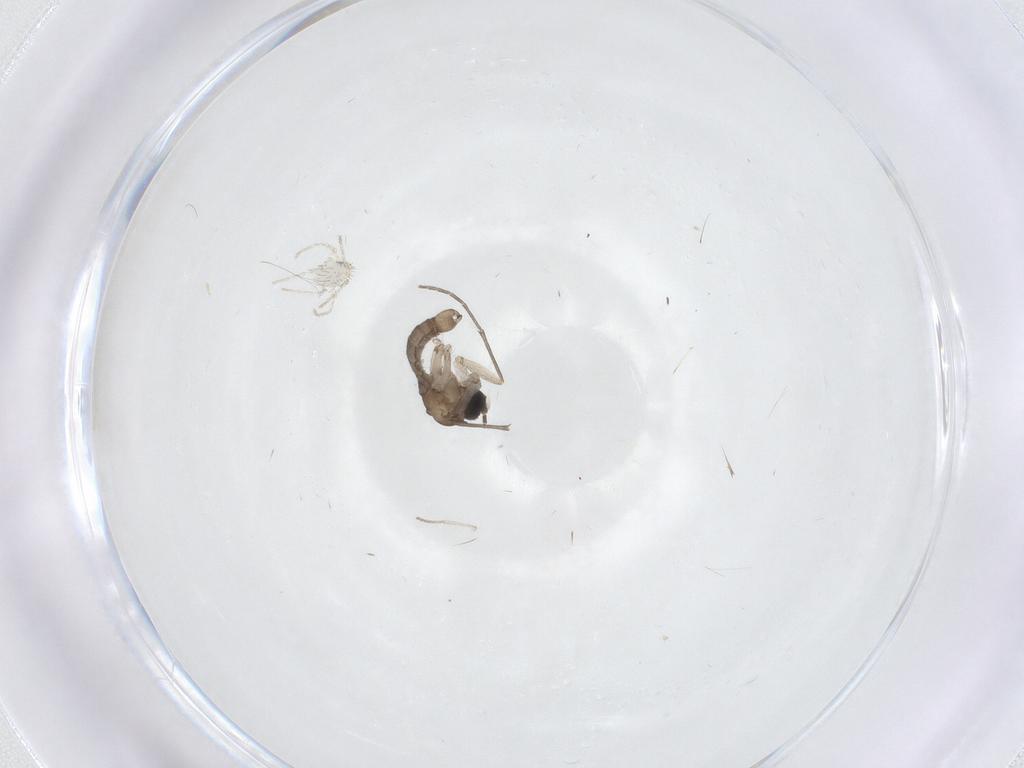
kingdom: Animalia
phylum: Arthropoda
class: Insecta
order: Diptera
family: Sciaridae
